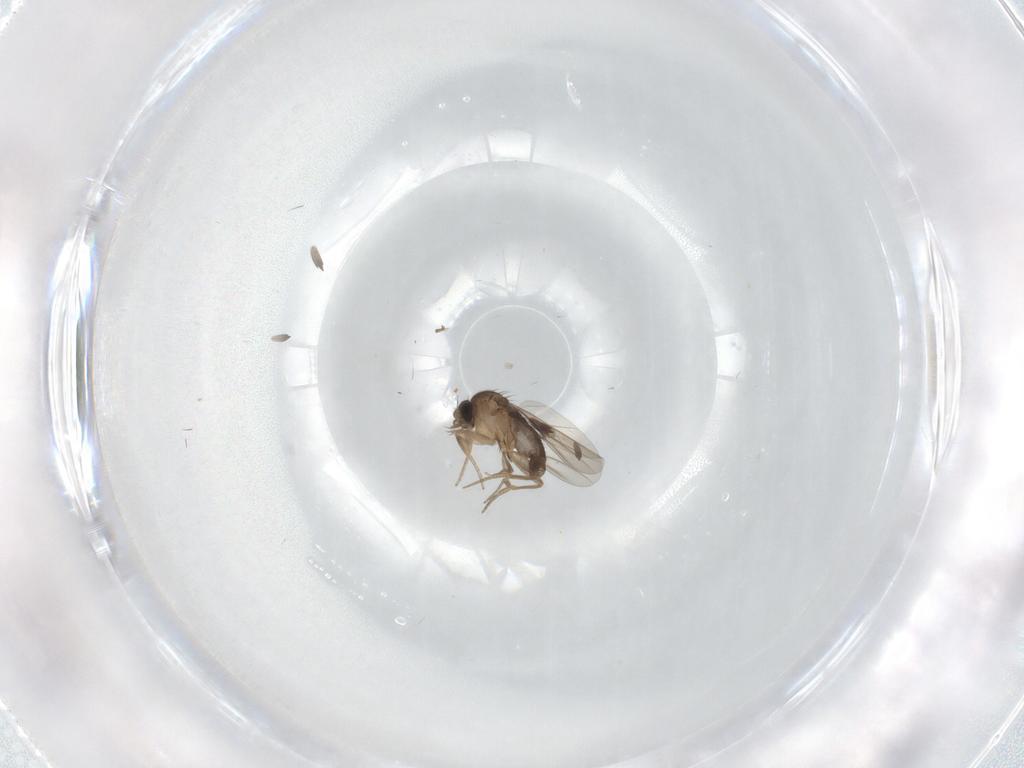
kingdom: Animalia
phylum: Arthropoda
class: Insecta
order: Diptera
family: Phoridae
